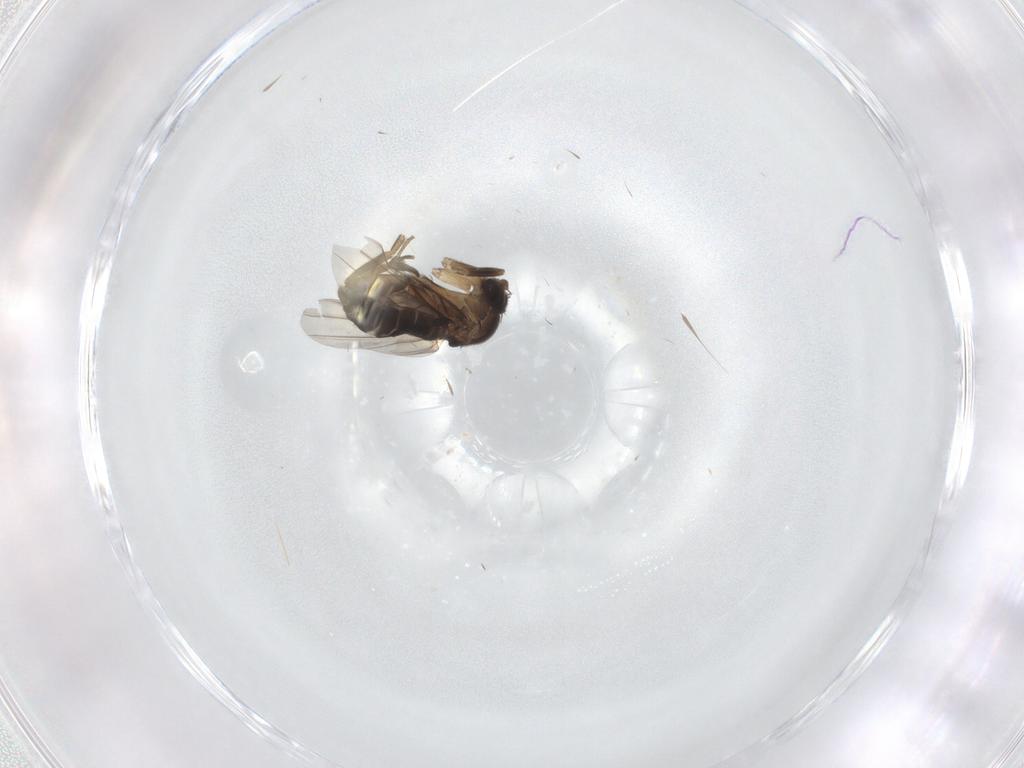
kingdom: Animalia
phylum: Arthropoda
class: Insecta
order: Diptera
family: Phoridae
